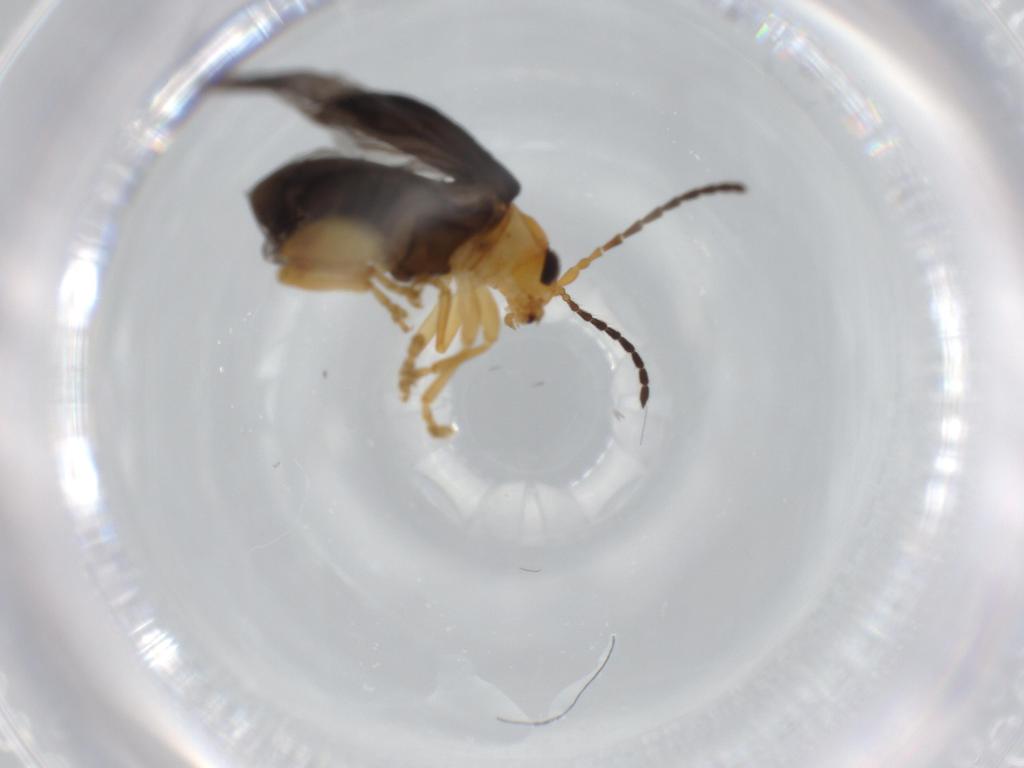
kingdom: Animalia
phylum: Arthropoda
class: Insecta
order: Coleoptera
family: Chrysomelidae
